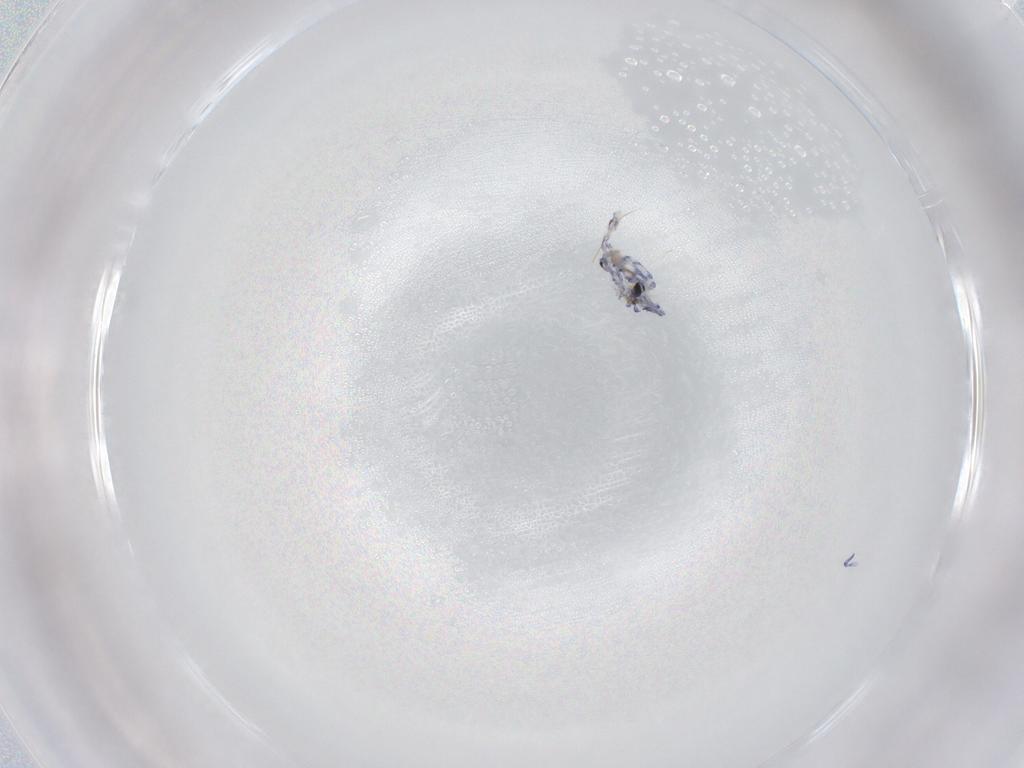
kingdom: Animalia
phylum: Arthropoda
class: Collembola
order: Entomobryomorpha
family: Entomobryidae
